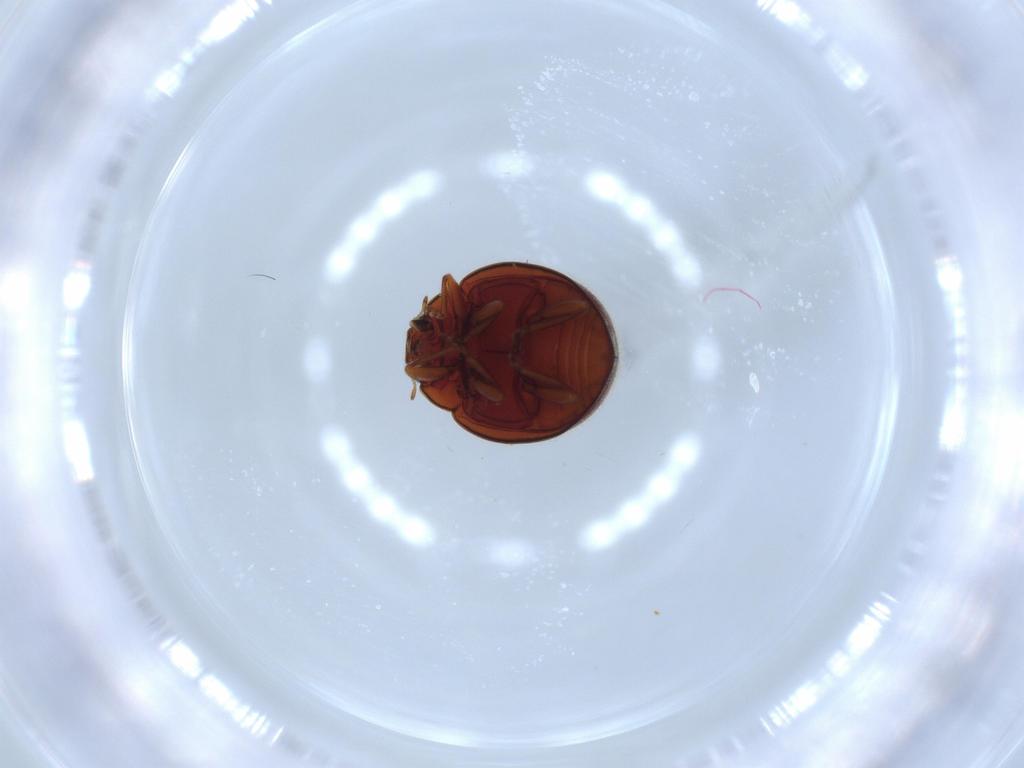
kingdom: Animalia
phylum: Arthropoda
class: Insecta
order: Coleoptera
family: Coccinellidae
